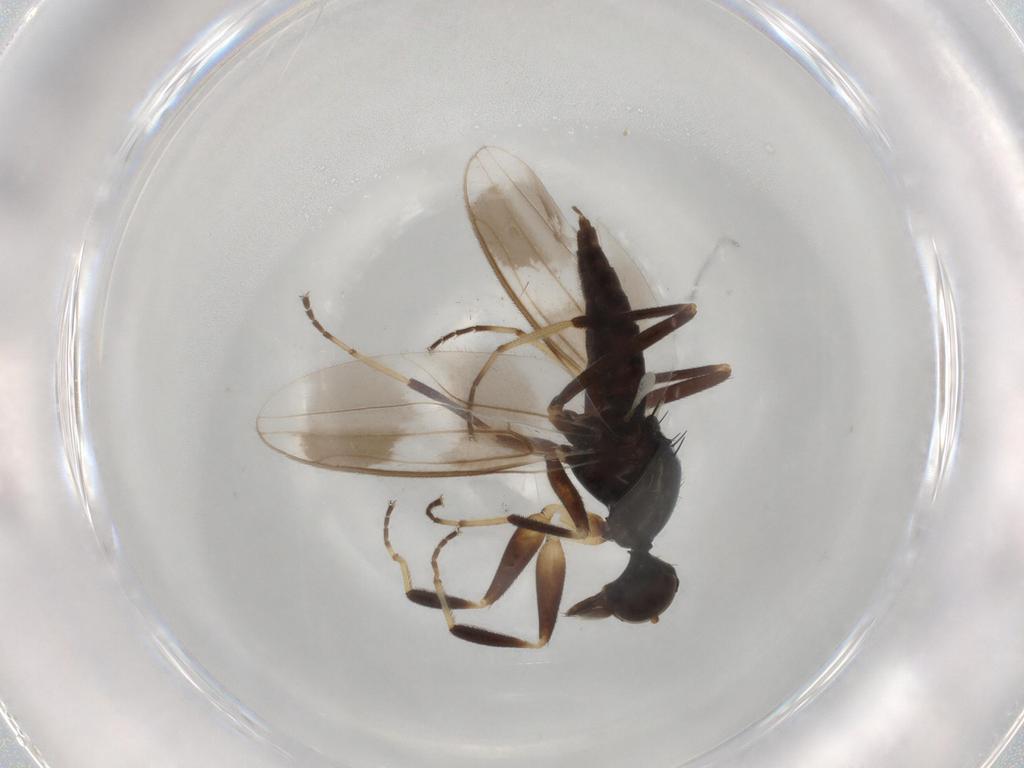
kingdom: Animalia
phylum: Arthropoda
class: Insecta
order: Diptera
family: Hybotidae
